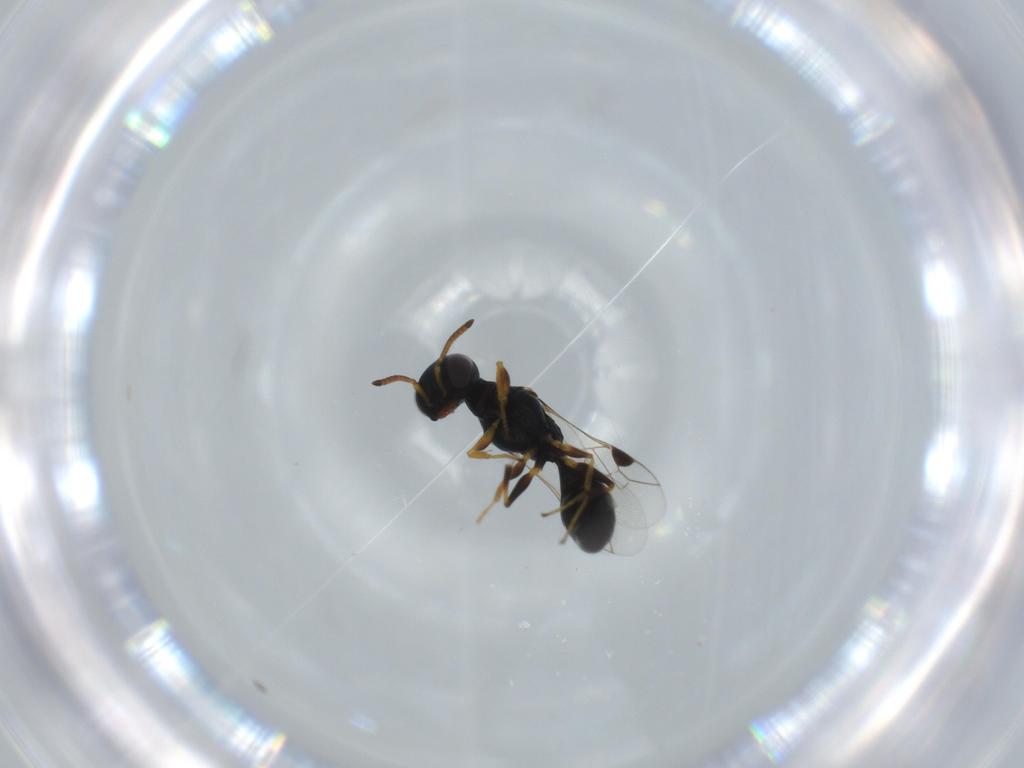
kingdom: Animalia
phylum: Arthropoda
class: Insecta
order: Hymenoptera
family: Pemphredonidae
